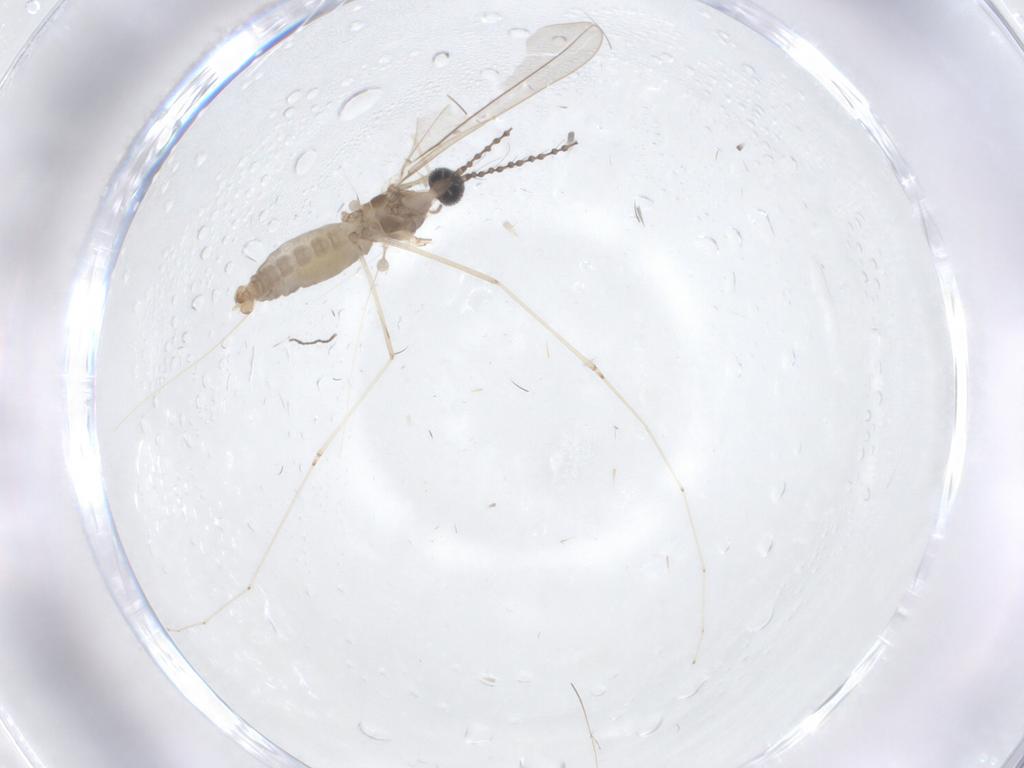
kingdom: Animalia
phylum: Arthropoda
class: Insecta
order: Diptera
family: Cecidomyiidae
